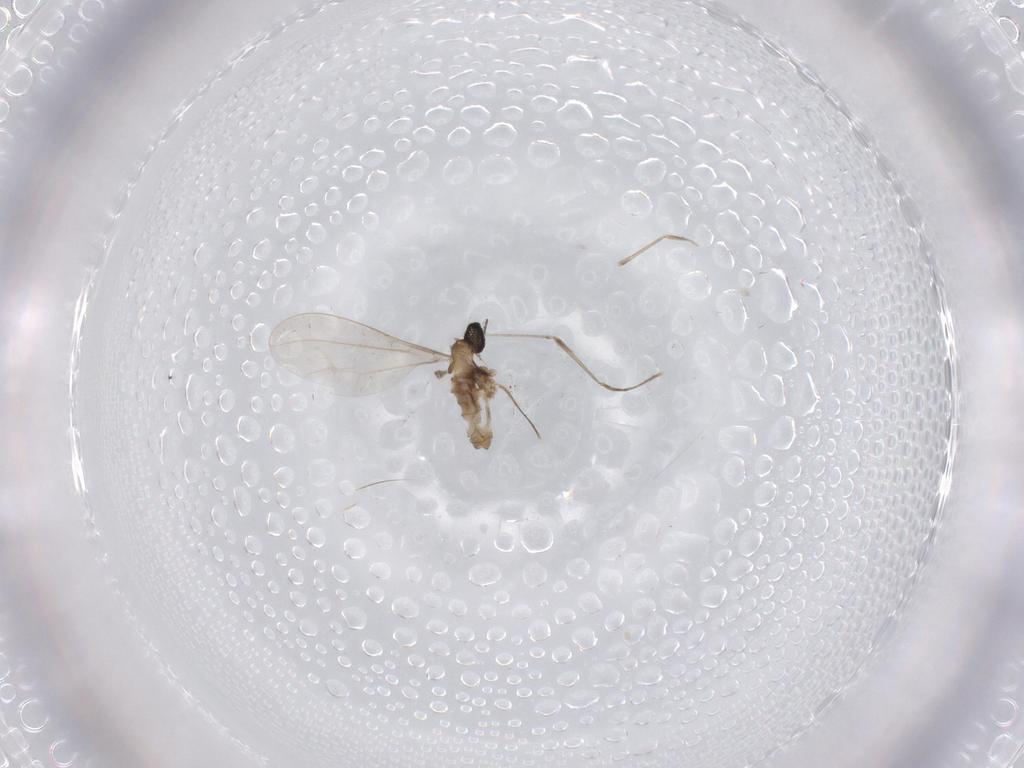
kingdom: Animalia
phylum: Arthropoda
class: Insecta
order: Diptera
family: Cecidomyiidae
